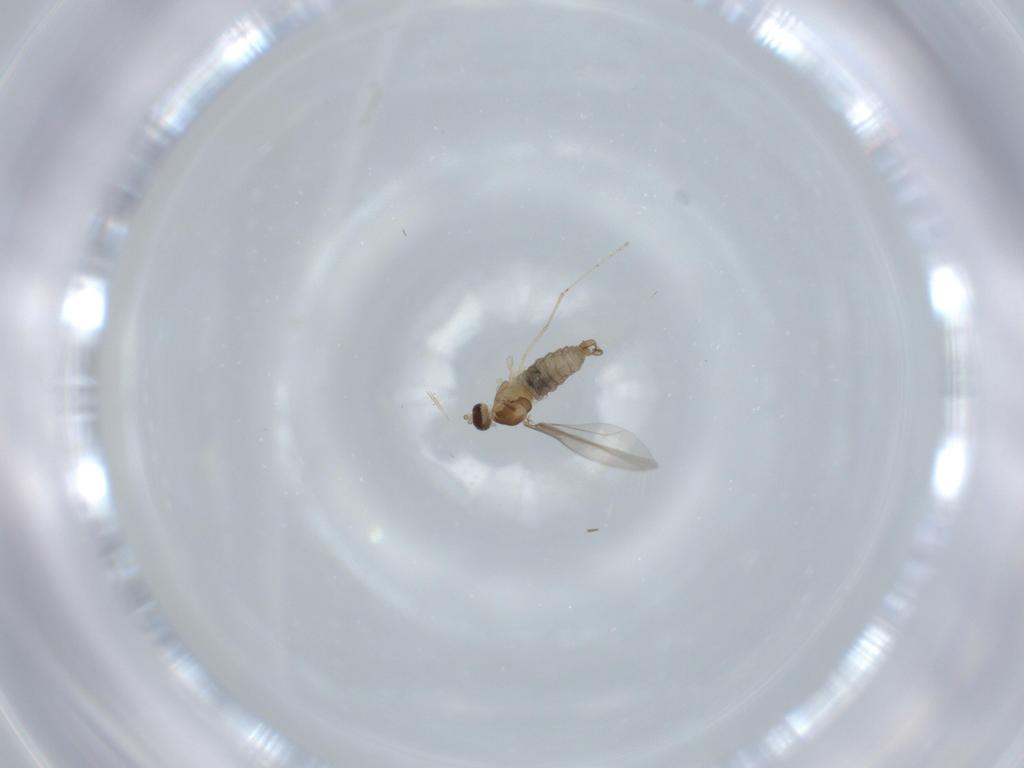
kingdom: Animalia
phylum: Arthropoda
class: Insecta
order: Diptera
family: Cecidomyiidae
